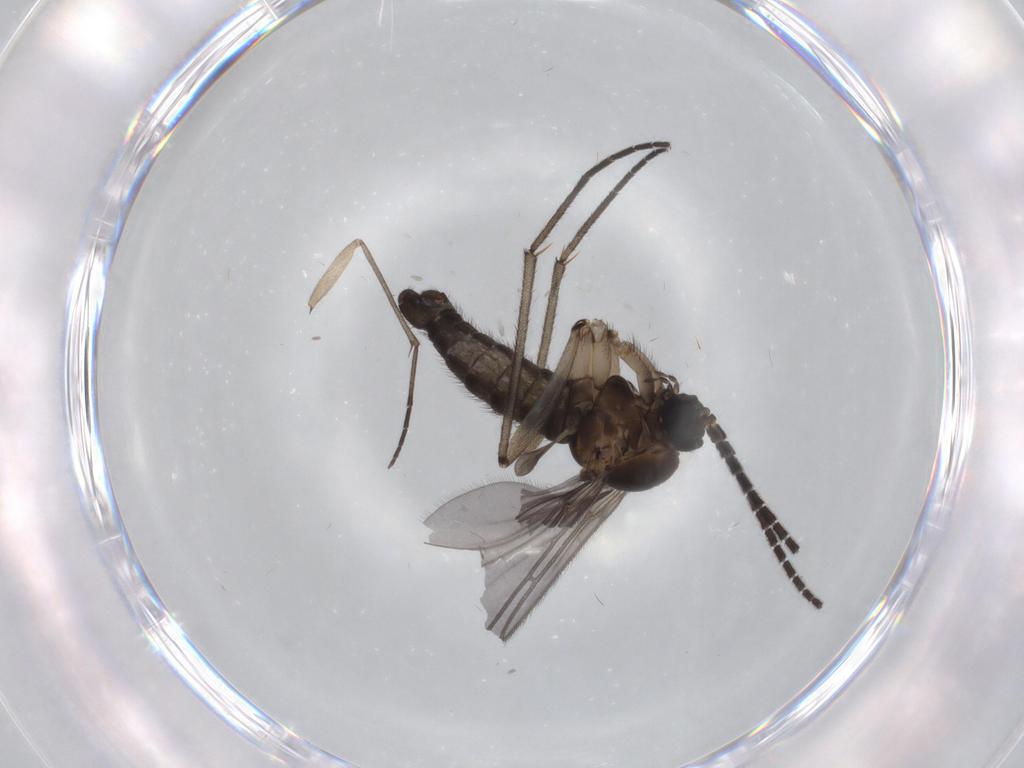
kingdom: Animalia
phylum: Arthropoda
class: Insecta
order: Diptera
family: Sciaridae
